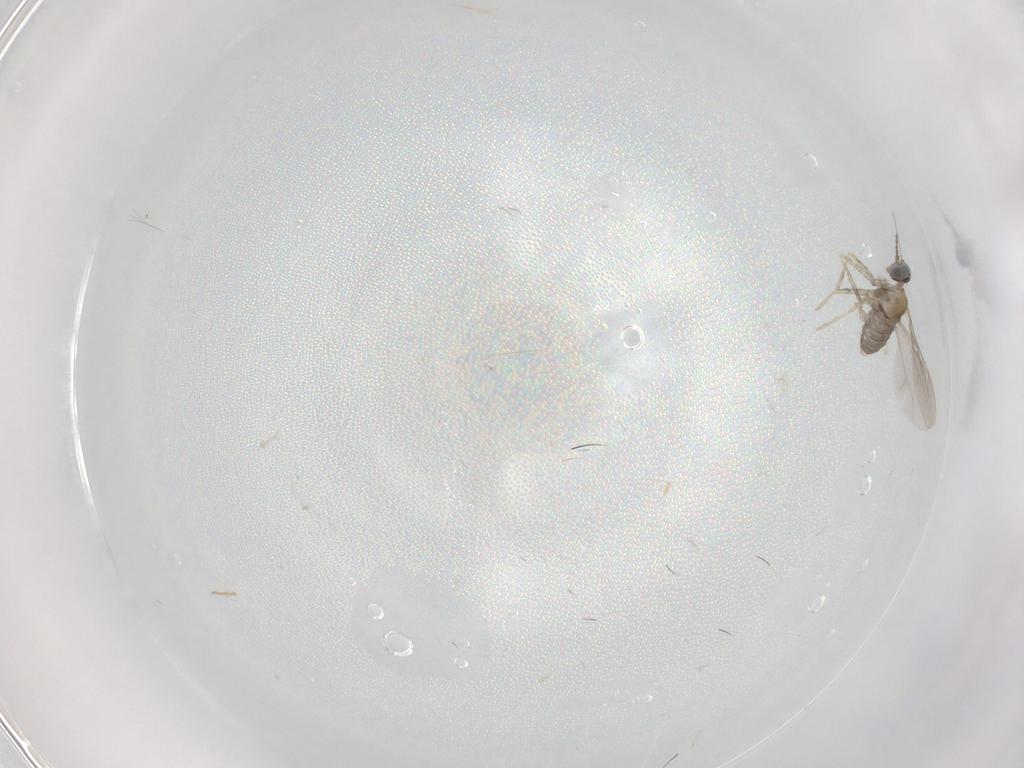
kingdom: Animalia
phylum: Arthropoda
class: Insecta
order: Diptera
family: Cecidomyiidae
